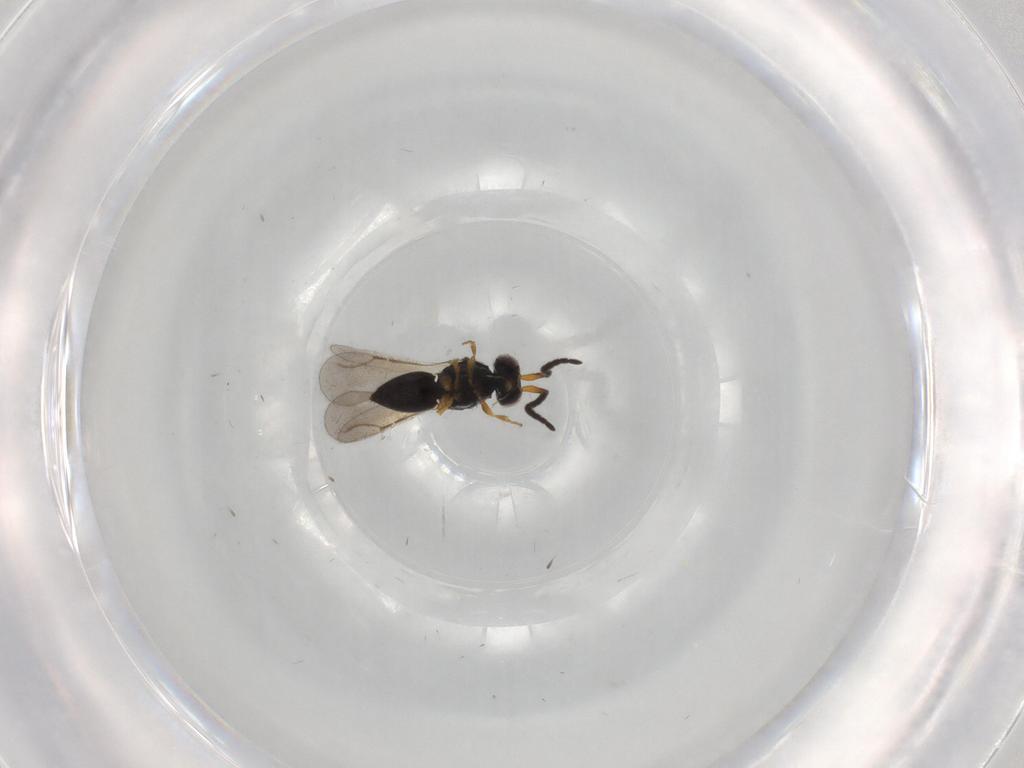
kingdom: Animalia
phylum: Arthropoda
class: Insecta
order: Hymenoptera
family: Ceraphronidae
